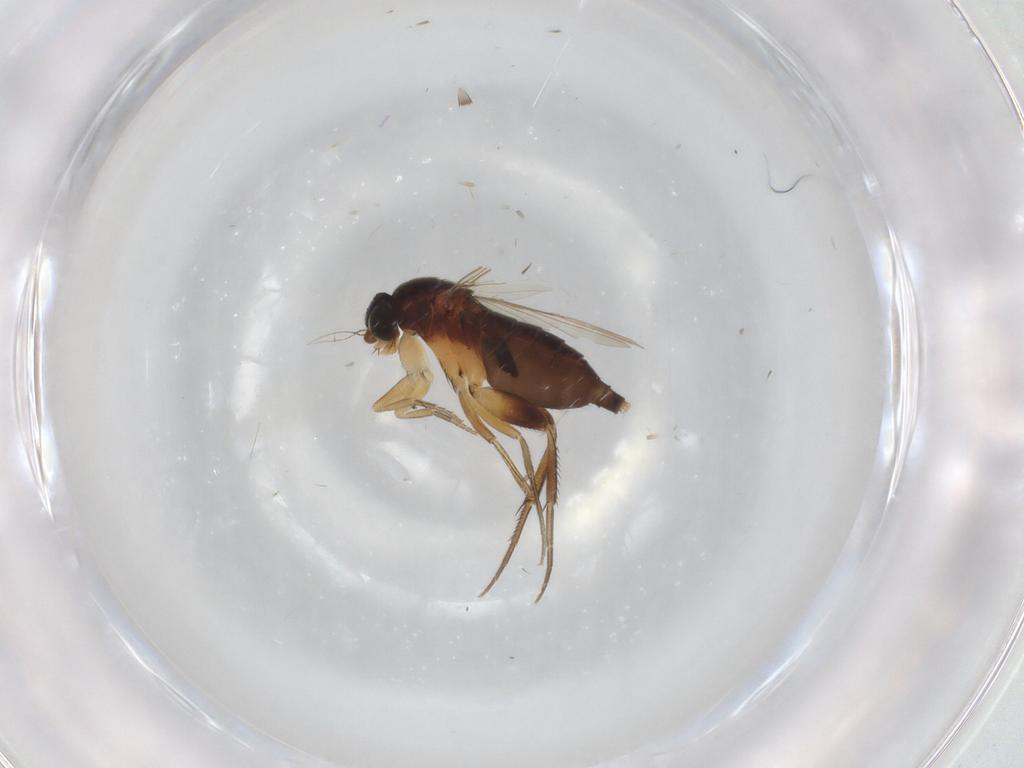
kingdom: Animalia
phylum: Arthropoda
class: Insecta
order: Diptera
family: Phoridae
